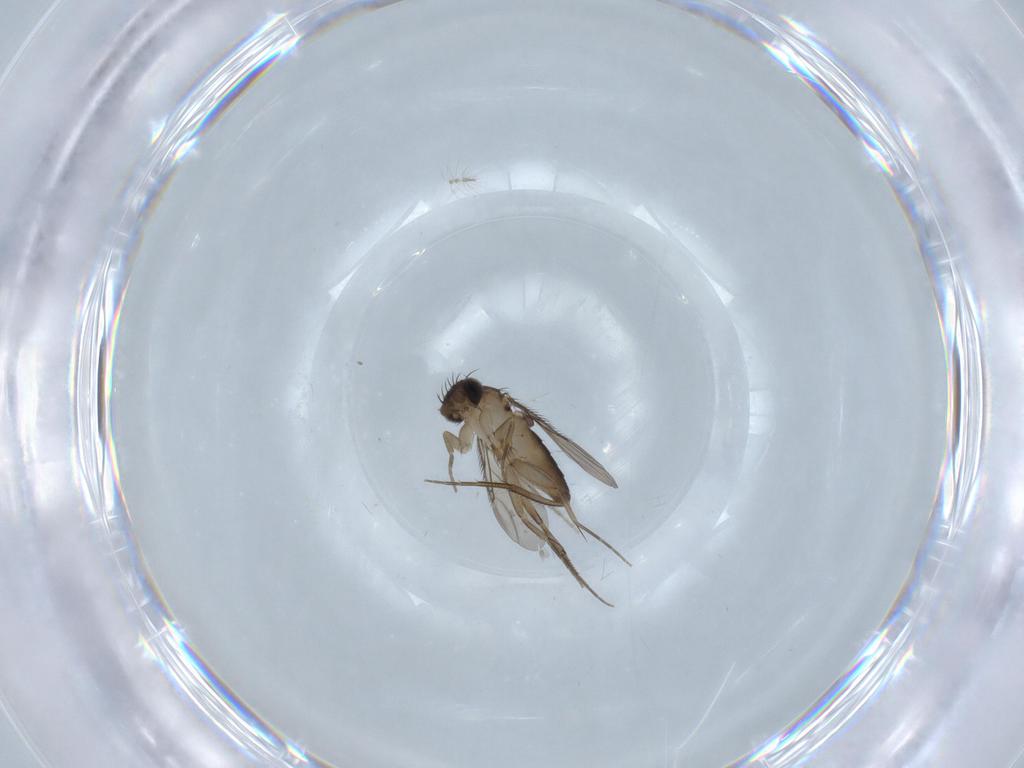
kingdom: Animalia
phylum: Arthropoda
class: Insecta
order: Diptera
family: Phoridae
